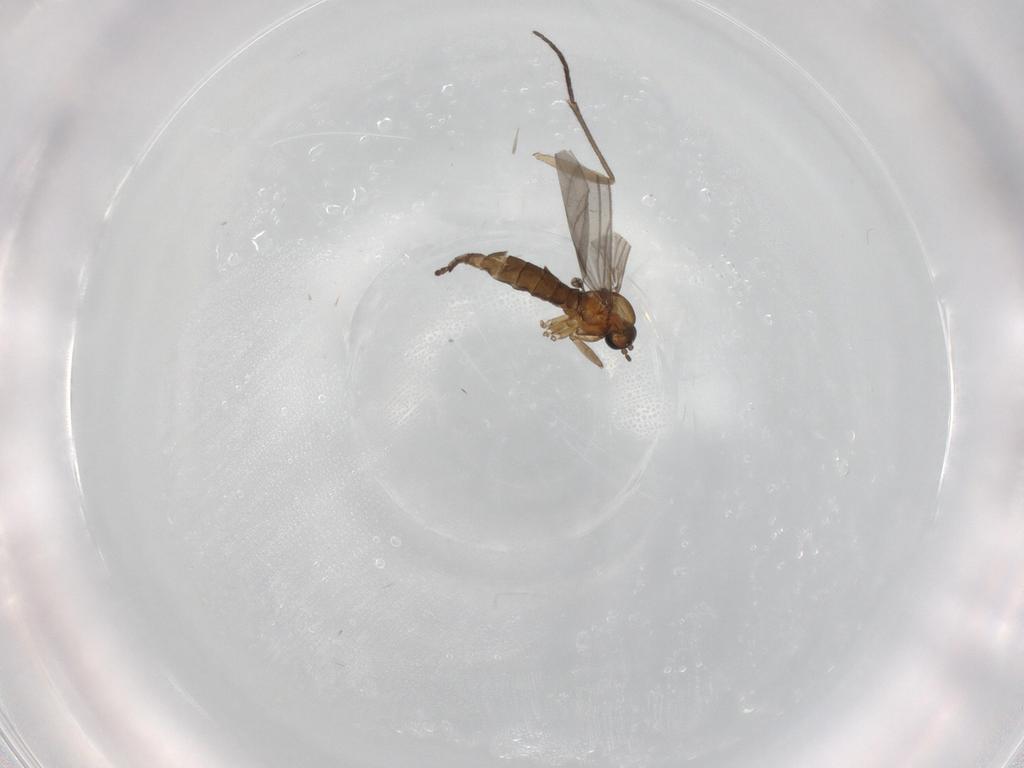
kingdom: Animalia
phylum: Arthropoda
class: Insecta
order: Diptera
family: Sciaridae
